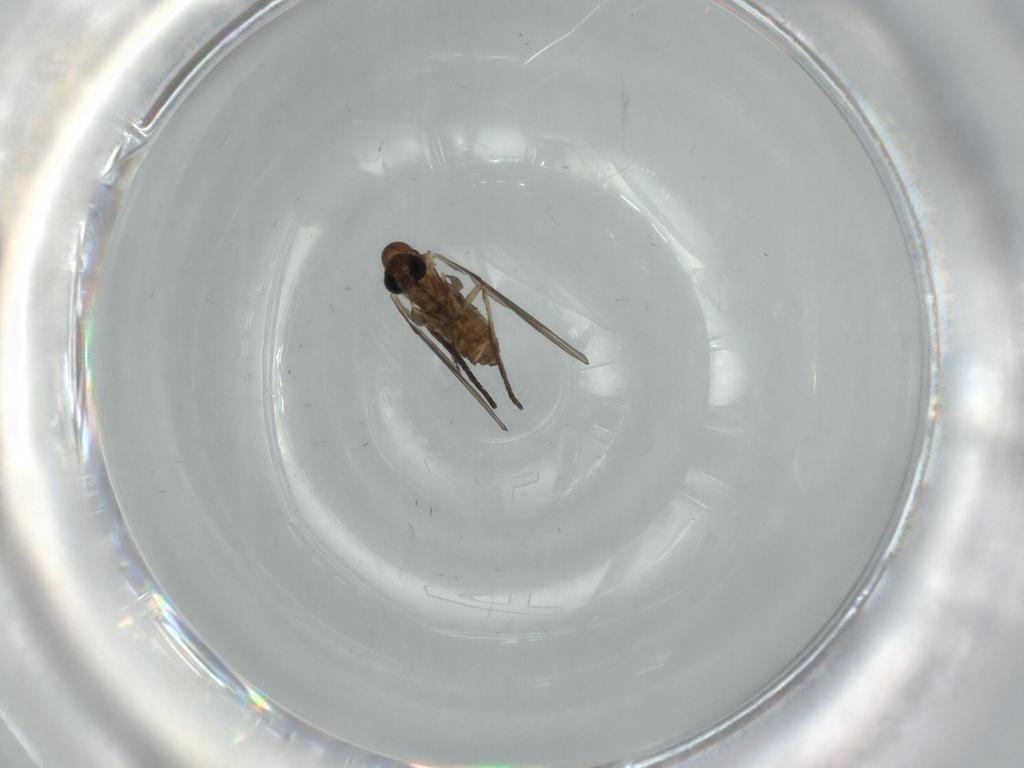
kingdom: Animalia
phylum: Arthropoda
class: Insecta
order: Diptera
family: Psychodidae
